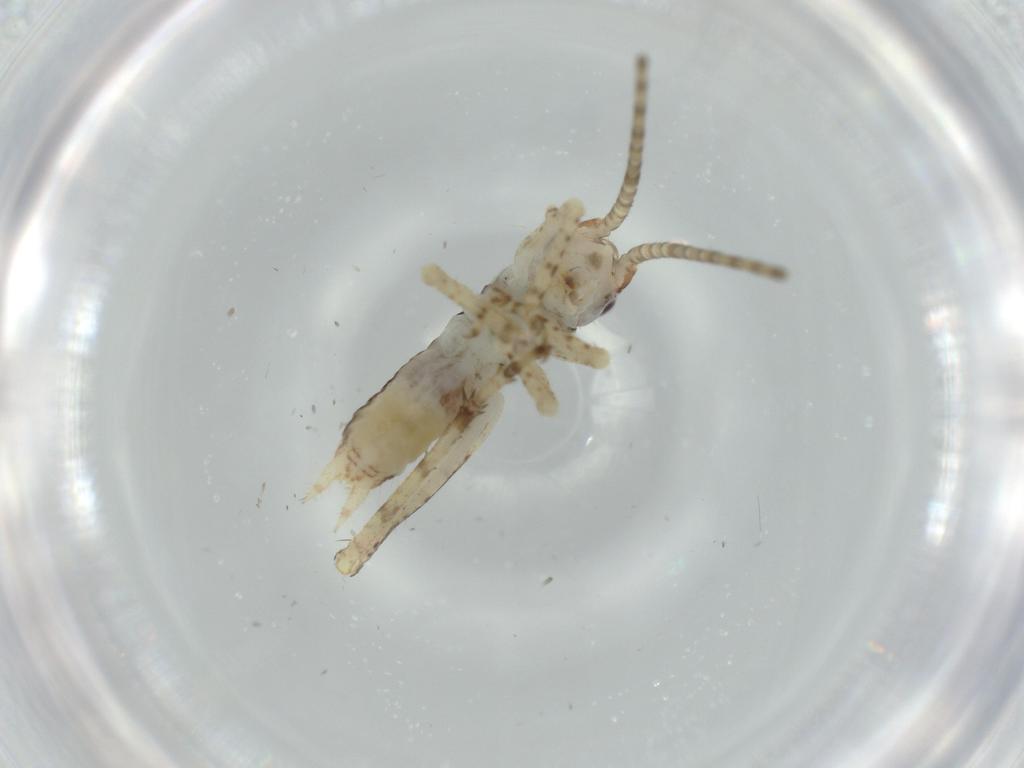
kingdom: Animalia
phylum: Arthropoda
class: Insecta
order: Orthoptera
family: Gryllidae
